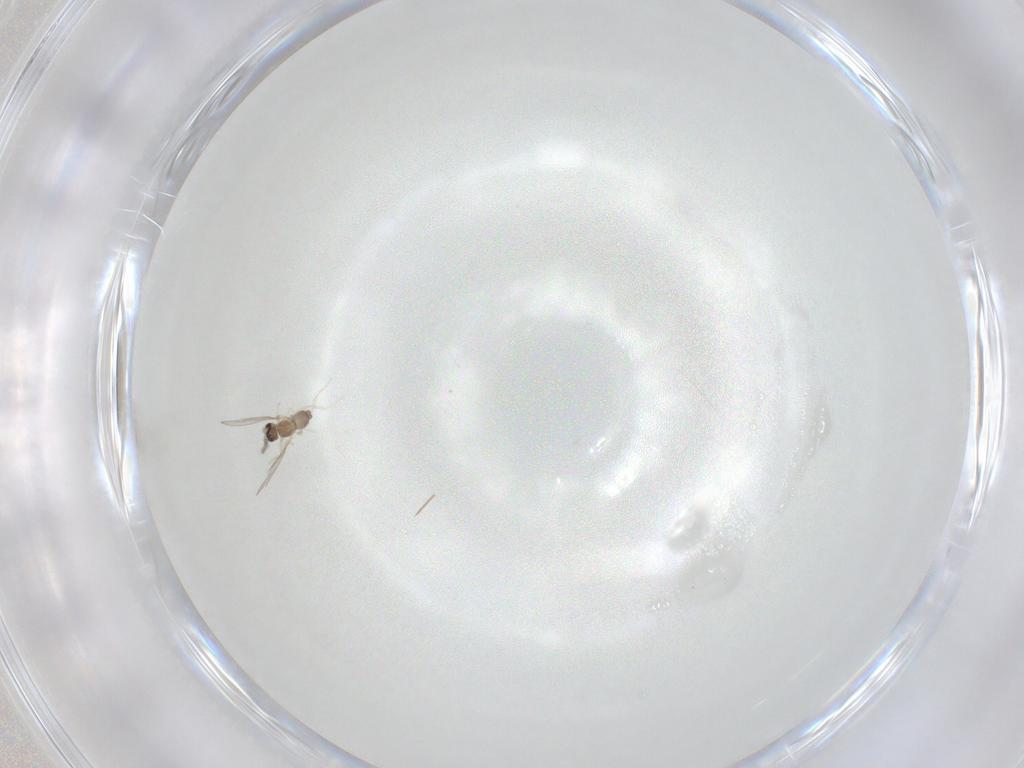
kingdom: Animalia
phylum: Arthropoda
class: Insecta
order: Diptera
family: Cecidomyiidae
